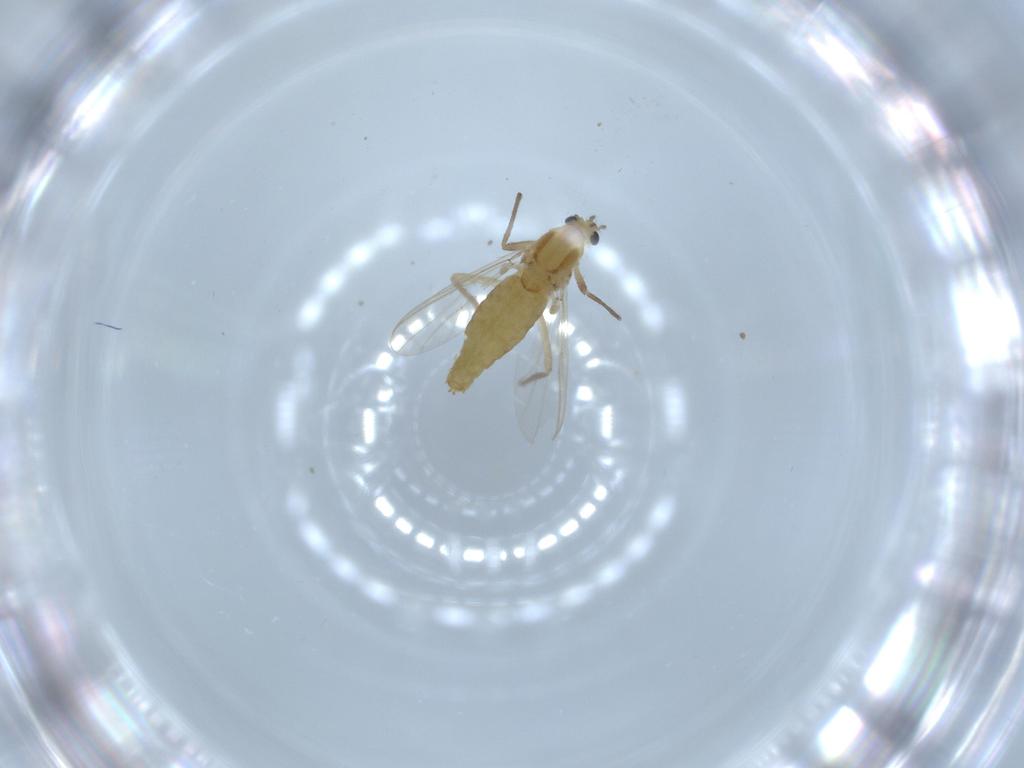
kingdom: Animalia
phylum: Arthropoda
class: Insecta
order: Diptera
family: Chironomidae
